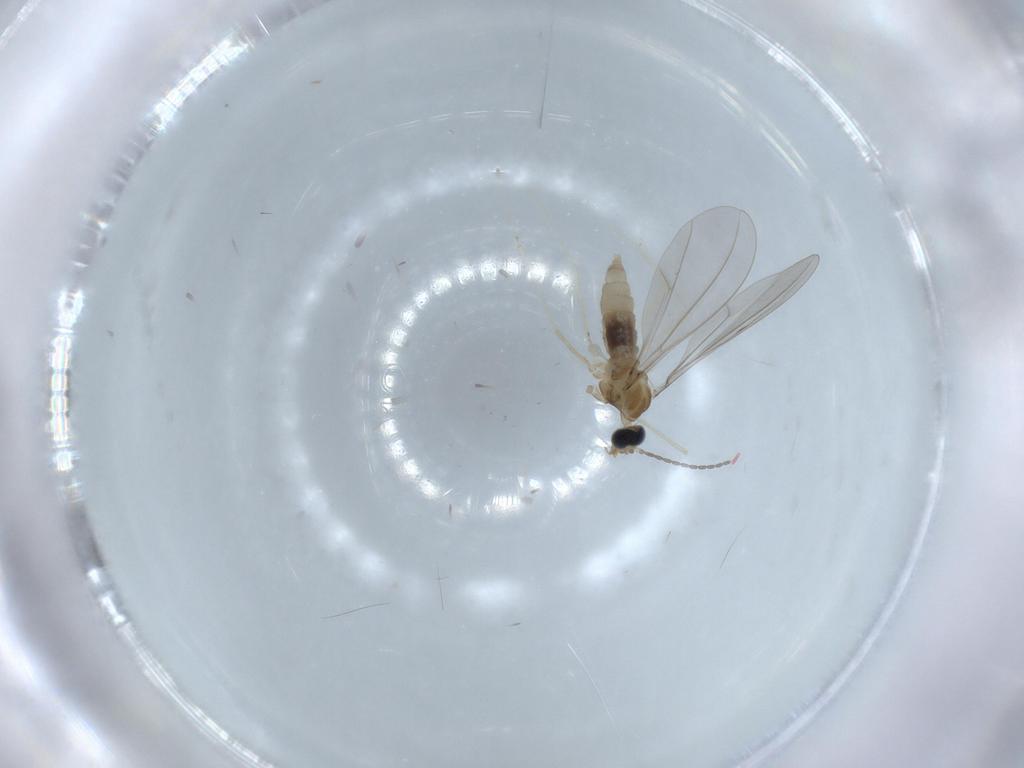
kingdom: Animalia
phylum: Arthropoda
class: Insecta
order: Diptera
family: Cecidomyiidae
